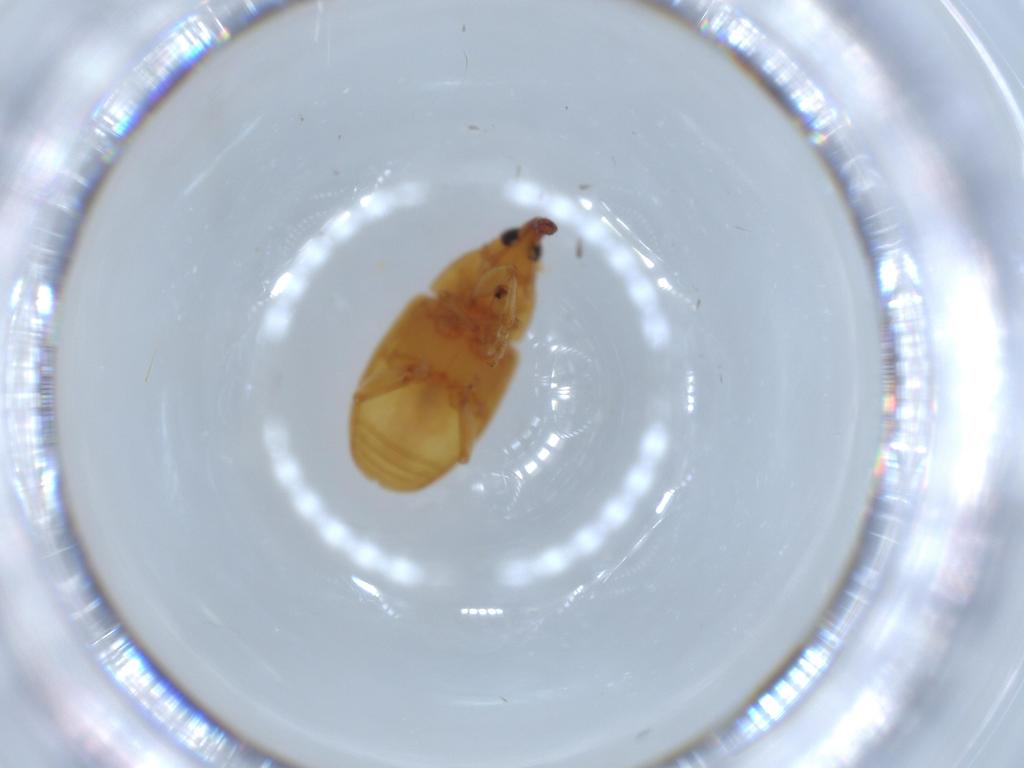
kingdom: Animalia
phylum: Arthropoda
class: Insecta
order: Coleoptera
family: Curculionidae
